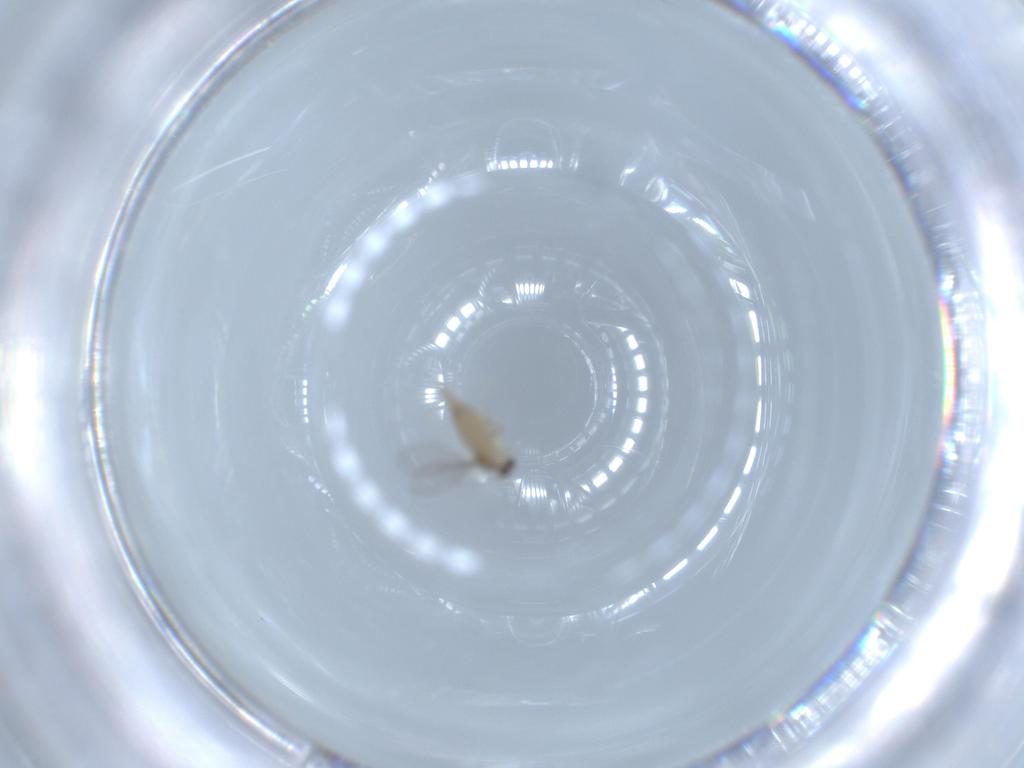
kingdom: Animalia
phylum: Arthropoda
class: Insecta
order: Diptera
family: Cecidomyiidae
